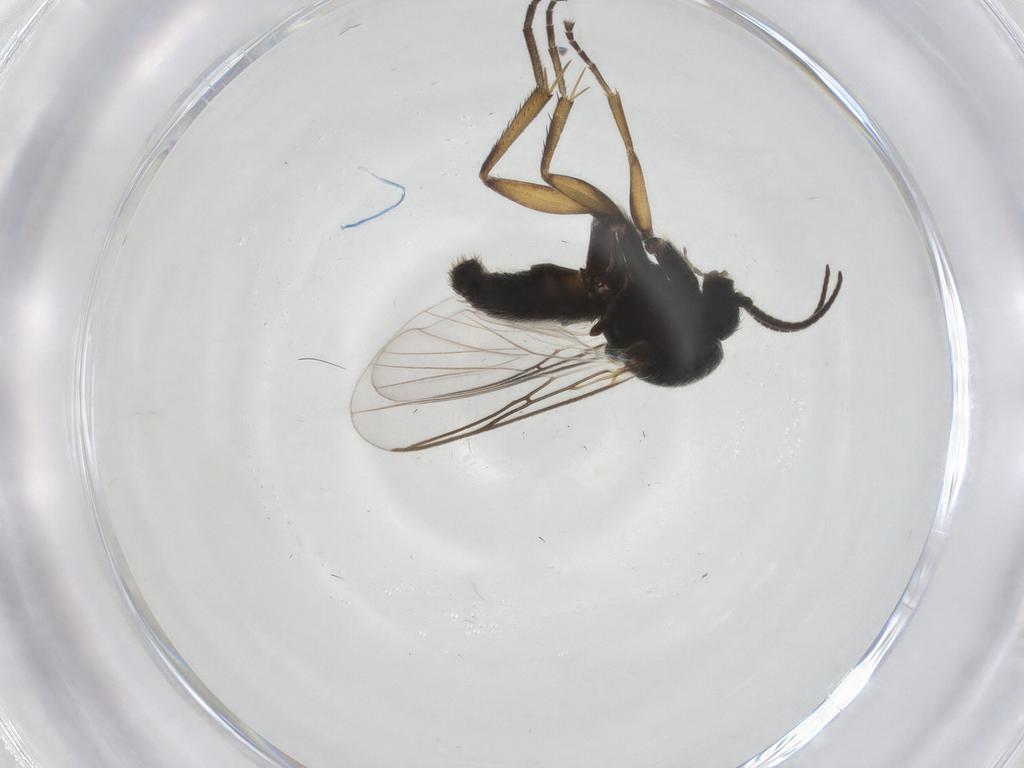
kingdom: Animalia
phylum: Arthropoda
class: Insecta
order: Diptera
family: Mycetophilidae
